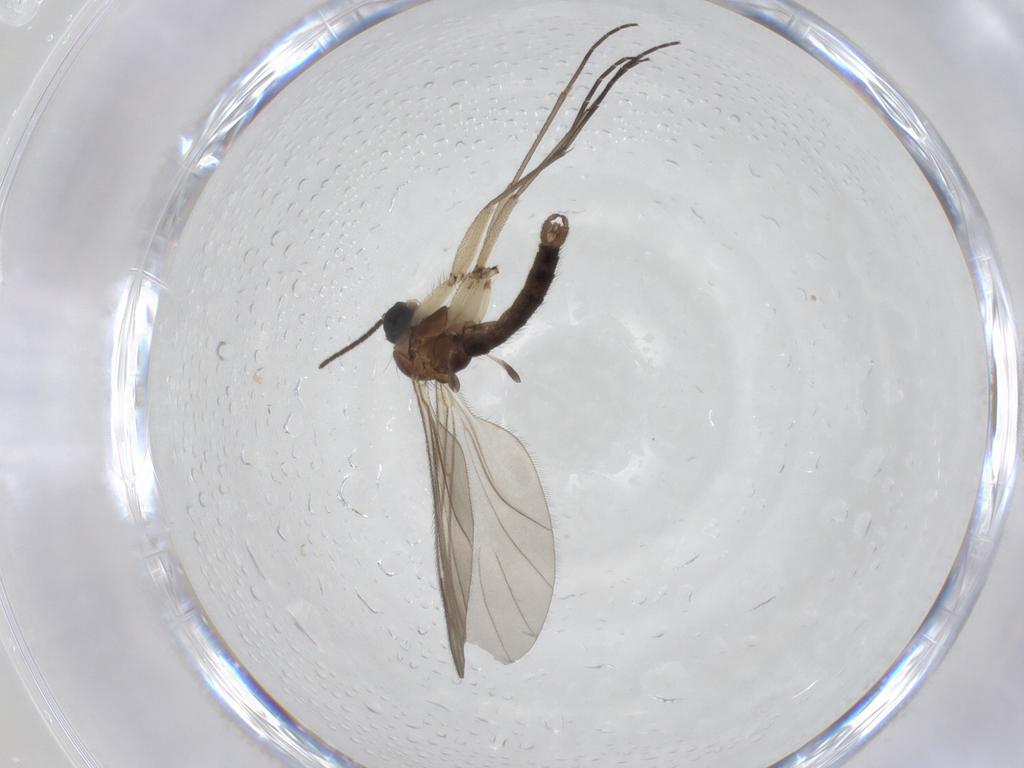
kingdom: Animalia
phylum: Arthropoda
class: Insecta
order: Diptera
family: Sciaridae
